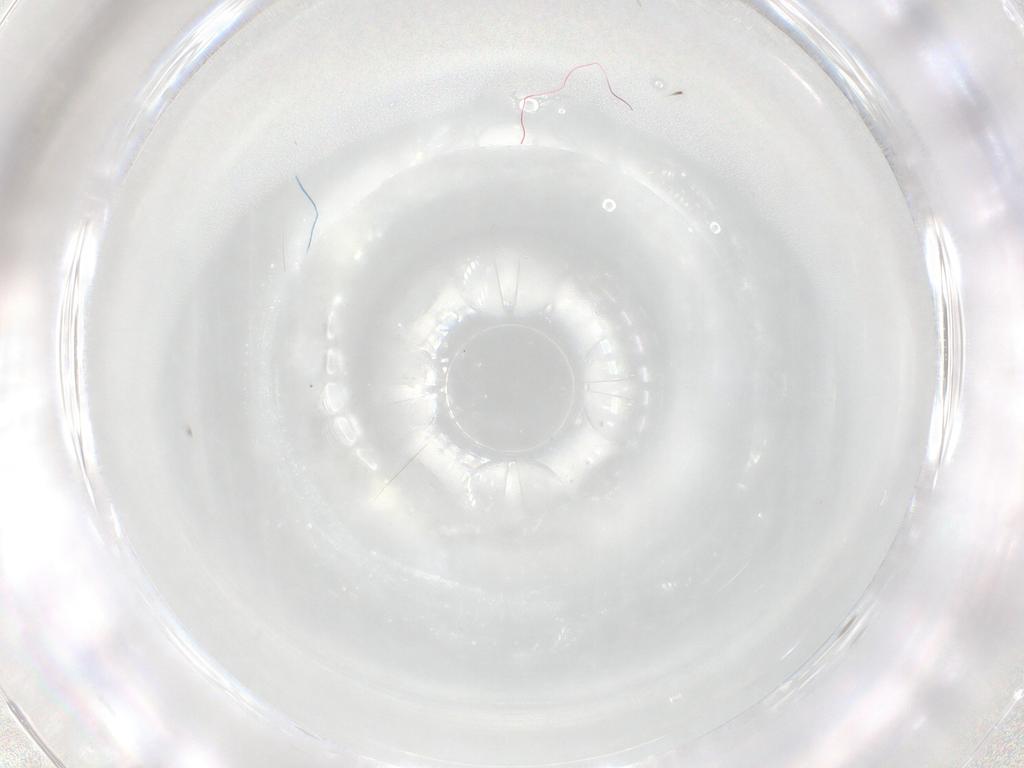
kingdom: Animalia
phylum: Arthropoda
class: Insecta
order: Diptera
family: Cecidomyiidae
